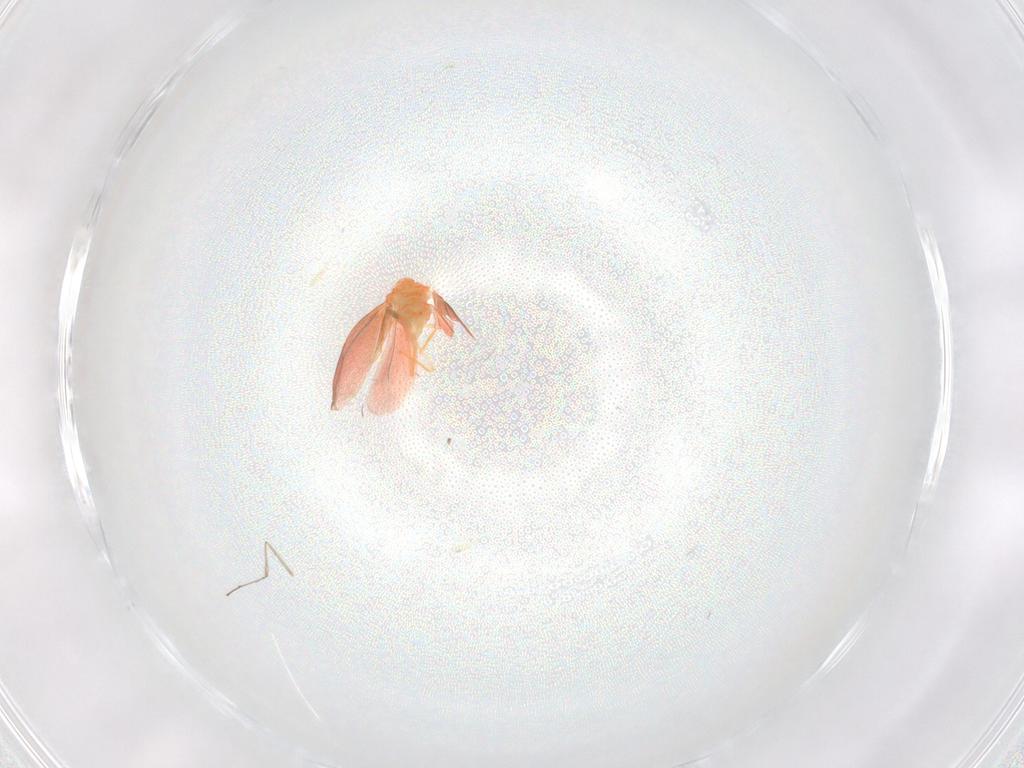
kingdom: Animalia
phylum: Arthropoda
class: Insecta
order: Hemiptera
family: Aleyrodidae
